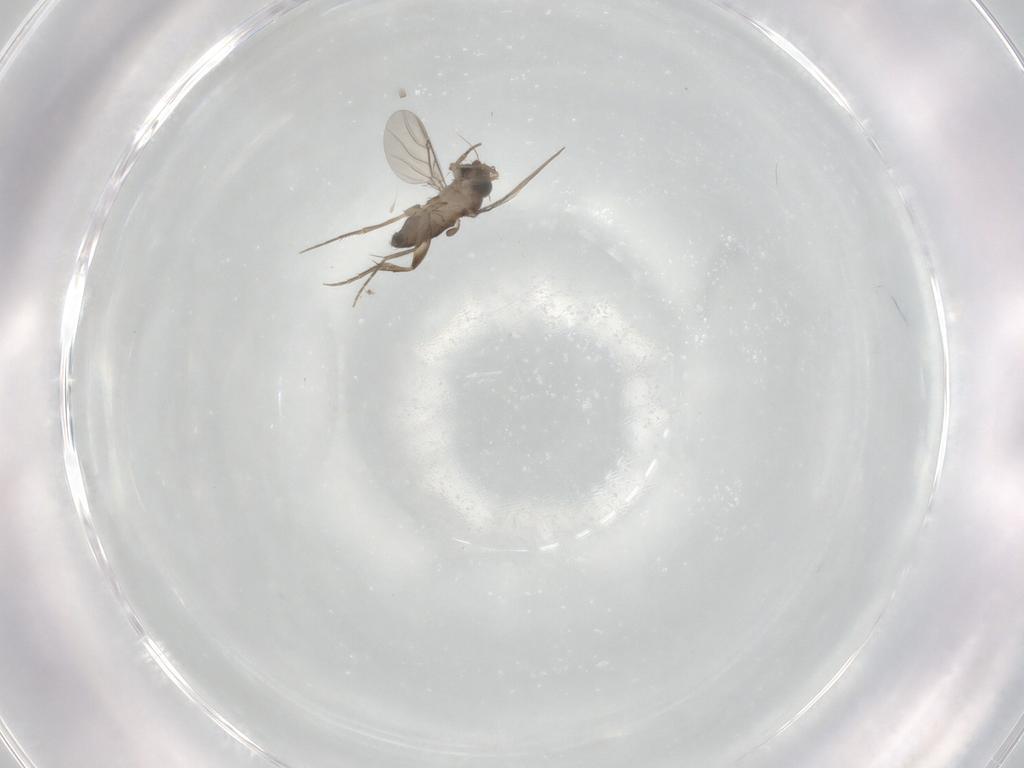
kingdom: Animalia
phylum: Arthropoda
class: Insecta
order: Diptera
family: Phoridae
